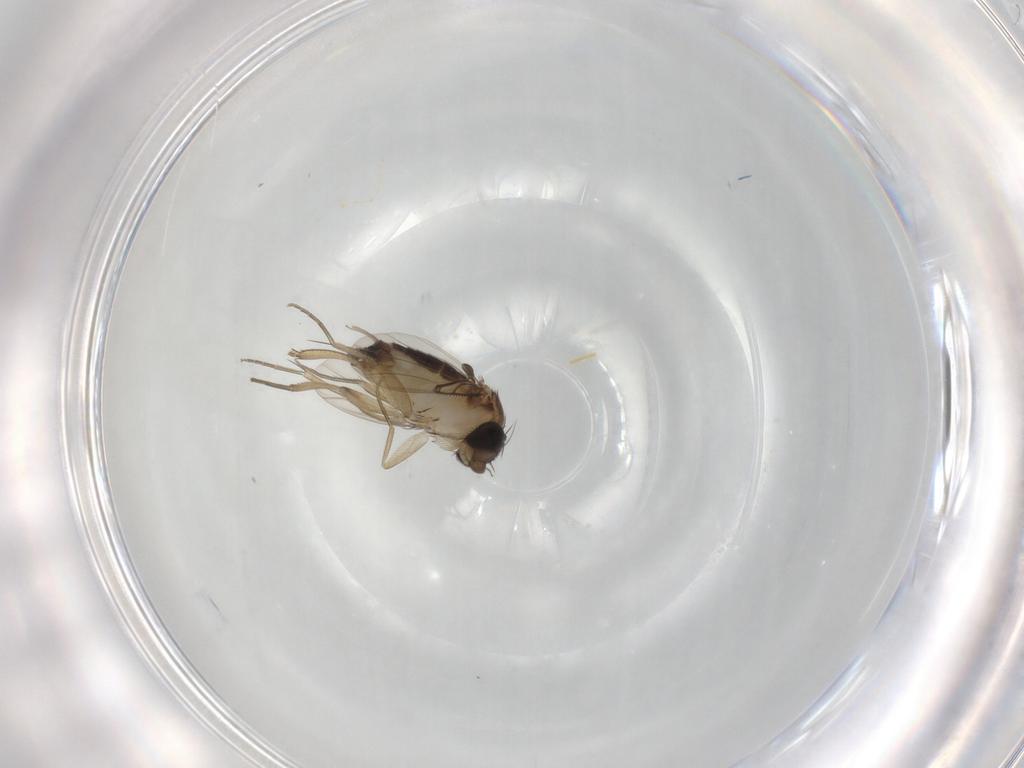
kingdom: Animalia
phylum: Arthropoda
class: Insecta
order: Diptera
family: Phoridae
